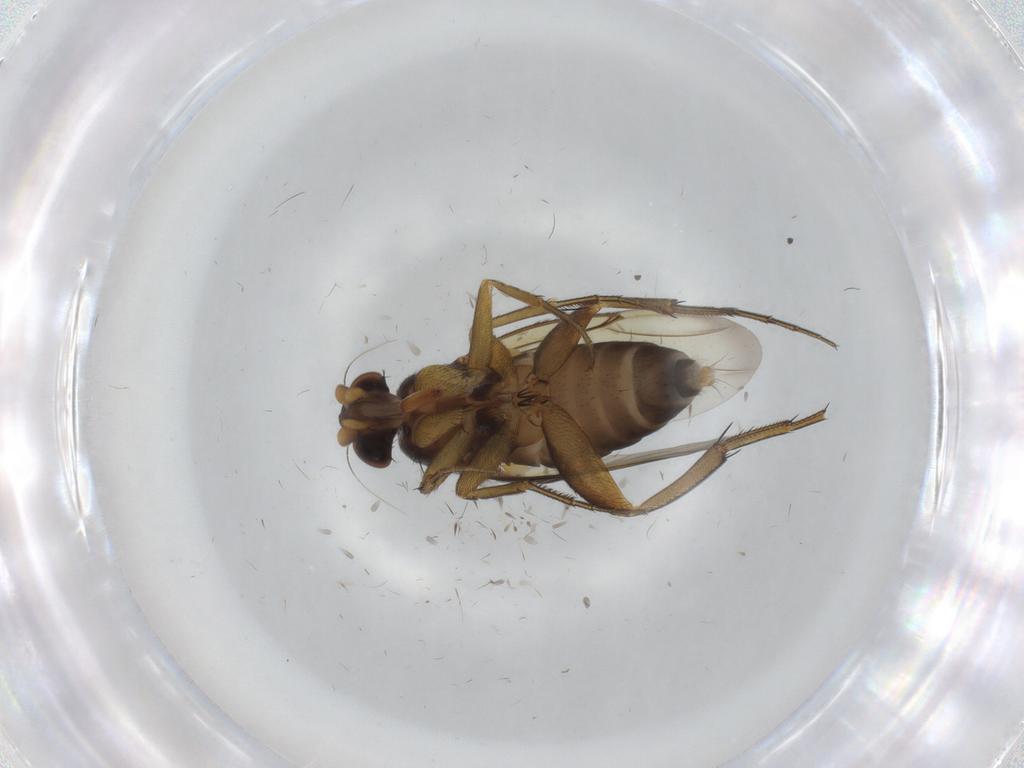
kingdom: Animalia
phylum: Arthropoda
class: Insecta
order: Diptera
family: Phoridae
